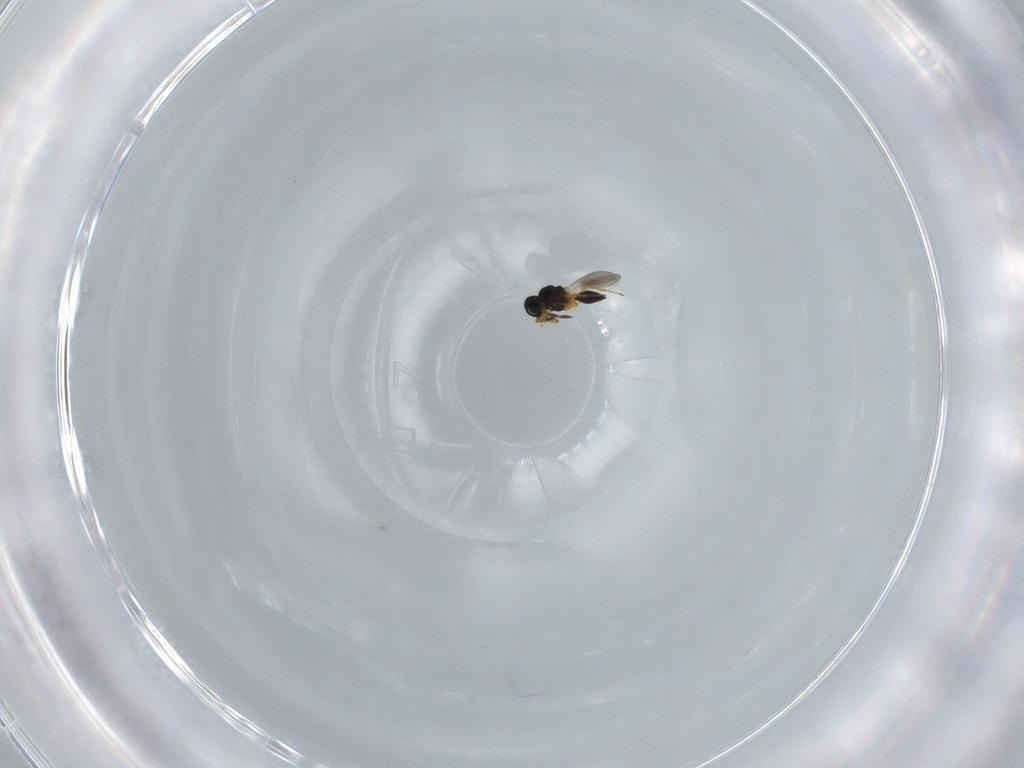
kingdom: Animalia
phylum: Arthropoda
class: Insecta
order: Hymenoptera
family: Platygastridae
